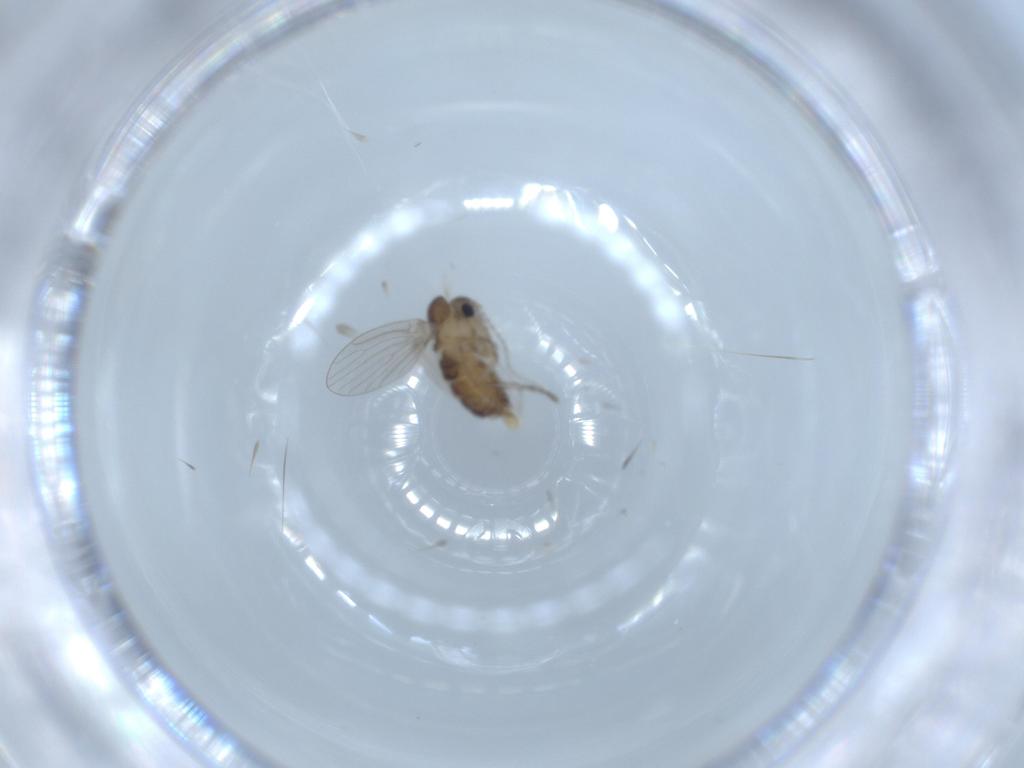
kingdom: Animalia
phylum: Arthropoda
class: Insecta
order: Diptera
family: Psychodidae
